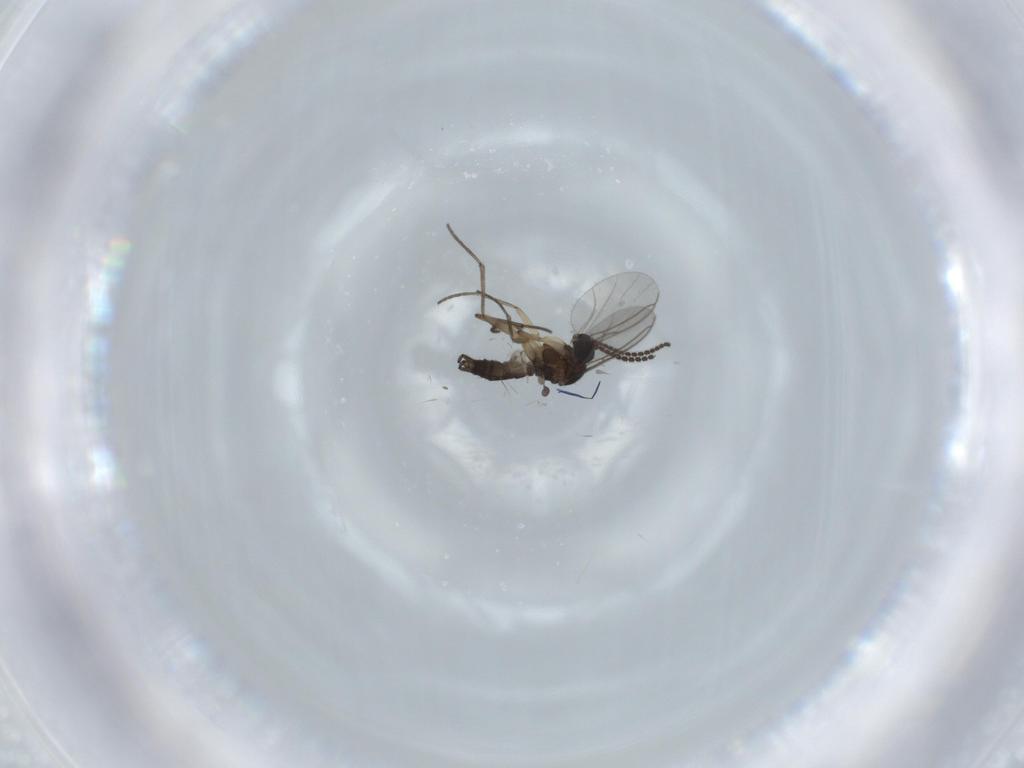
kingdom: Animalia
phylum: Arthropoda
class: Insecta
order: Diptera
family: Sciaridae
